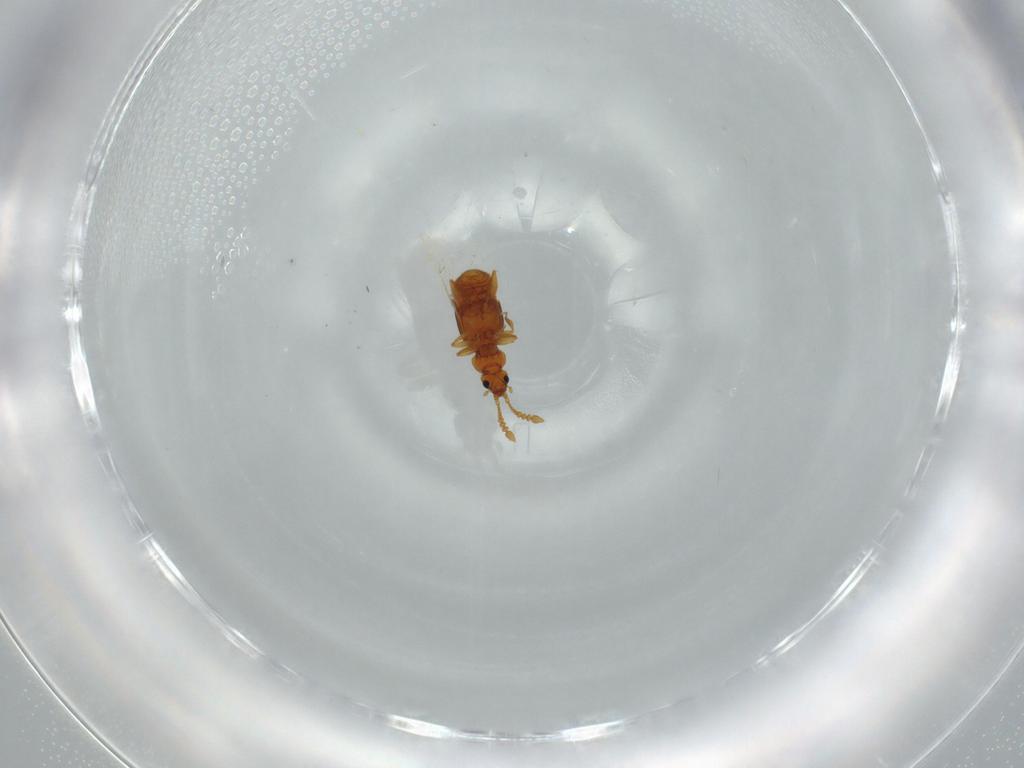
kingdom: Animalia
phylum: Arthropoda
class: Insecta
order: Coleoptera
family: Staphylinidae
